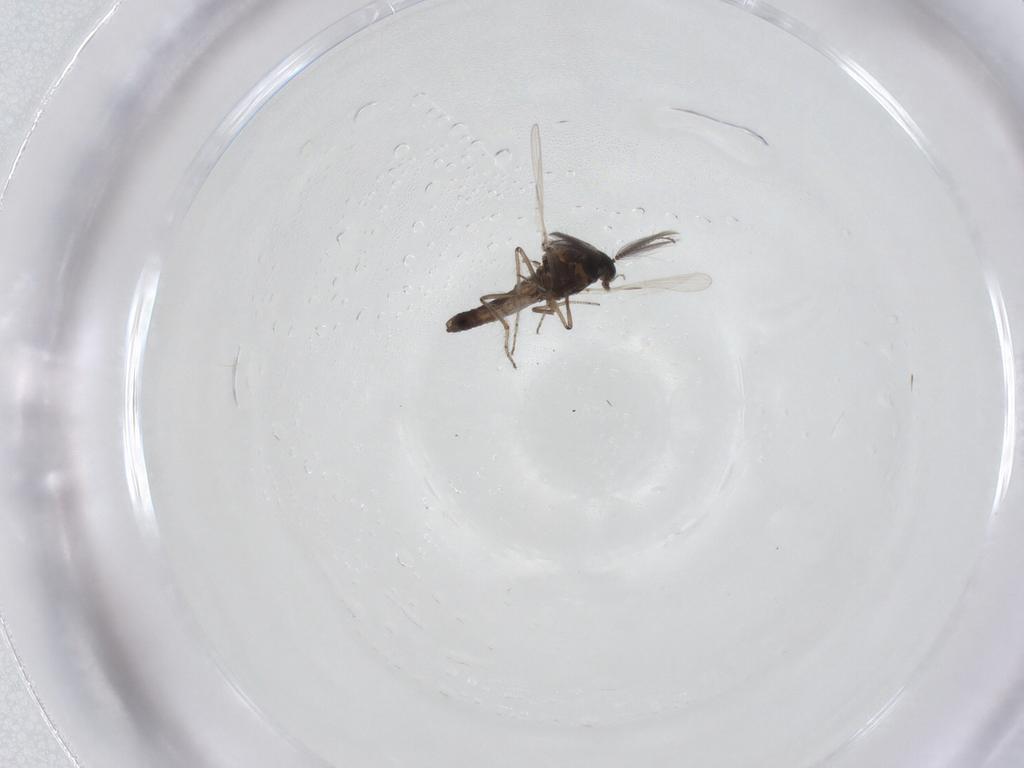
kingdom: Animalia
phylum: Arthropoda
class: Insecta
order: Diptera
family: Ceratopogonidae
